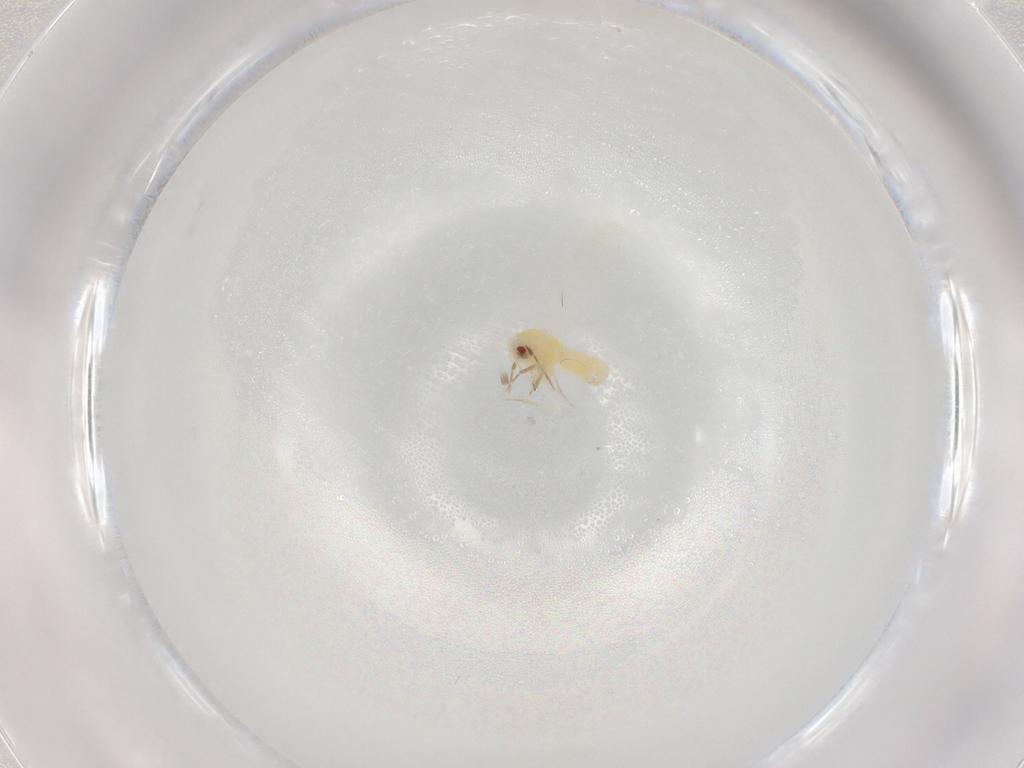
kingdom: Animalia
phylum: Arthropoda
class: Insecta
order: Hemiptera
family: Aleyrodidae
